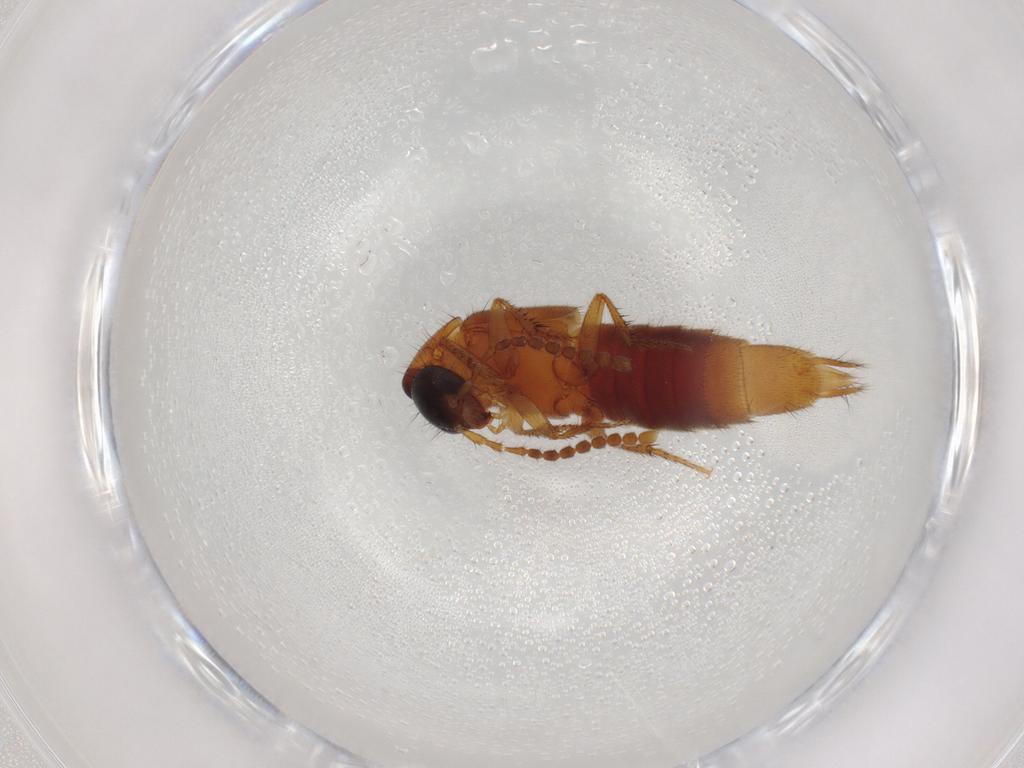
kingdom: Animalia
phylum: Arthropoda
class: Insecta
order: Coleoptera
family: Staphylinidae
